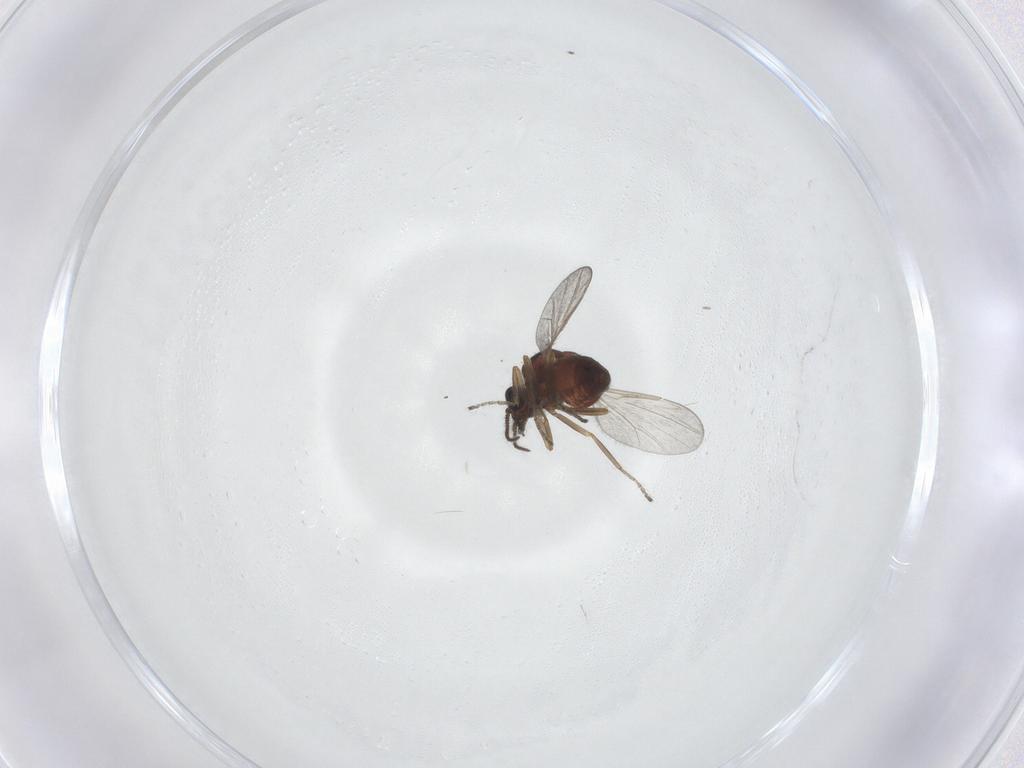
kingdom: Animalia
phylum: Arthropoda
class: Insecta
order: Diptera
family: Ceratopogonidae
